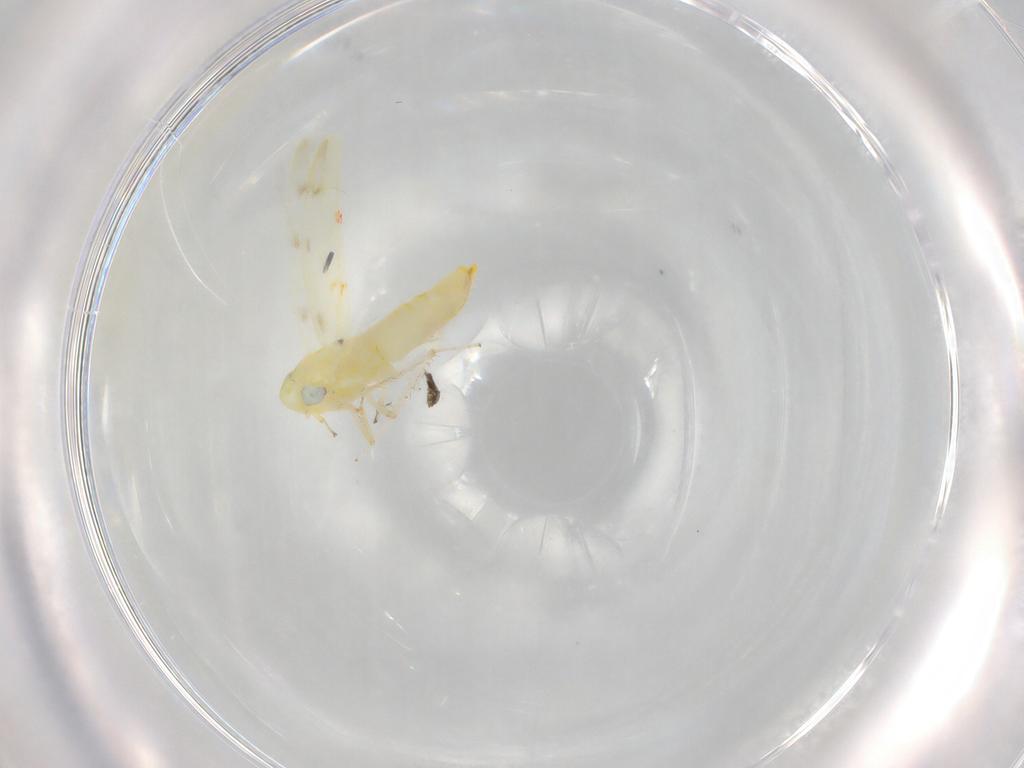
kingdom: Animalia
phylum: Arthropoda
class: Insecta
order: Hemiptera
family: Cicadellidae
